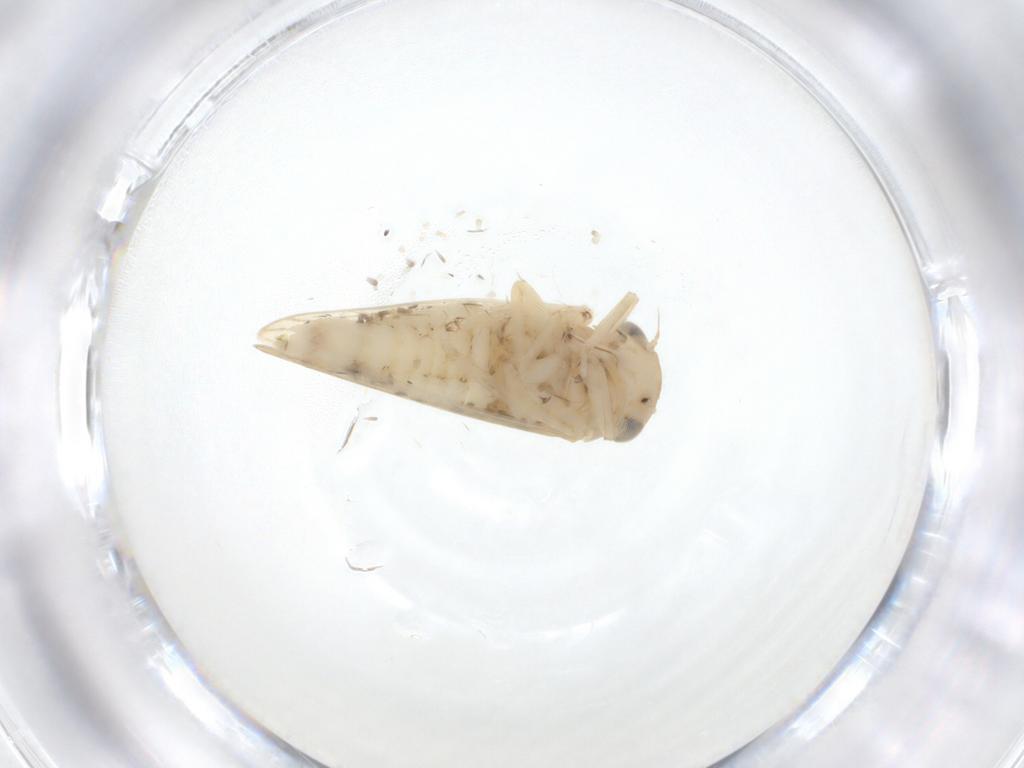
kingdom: Animalia
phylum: Arthropoda
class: Insecta
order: Hemiptera
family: Cicadellidae
